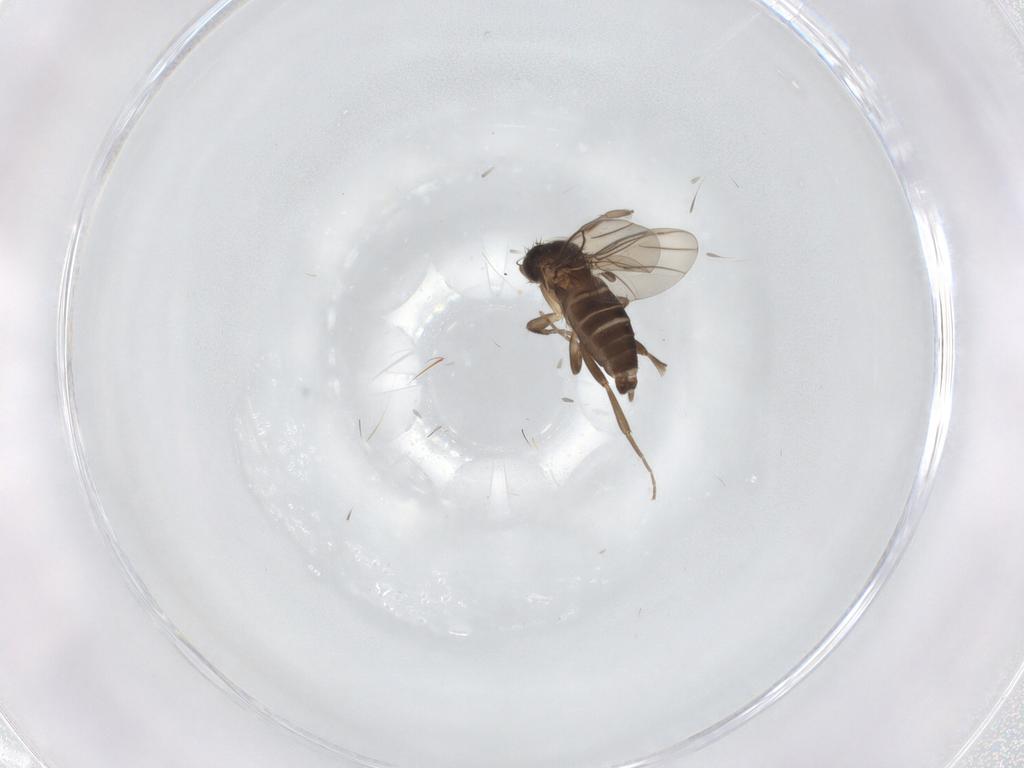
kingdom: Animalia
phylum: Arthropoda
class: Insecta
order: Diptera
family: Phoridae
